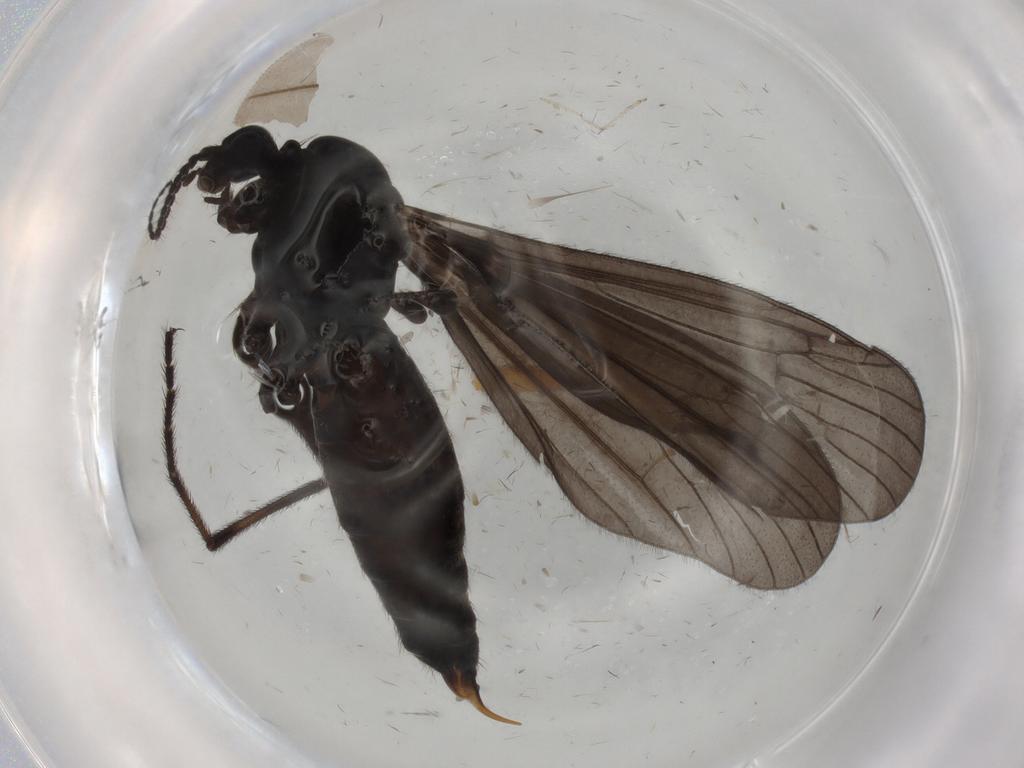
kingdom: Animalia
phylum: Arthropoda
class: Insecta
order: Diptera
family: Limoniidae
